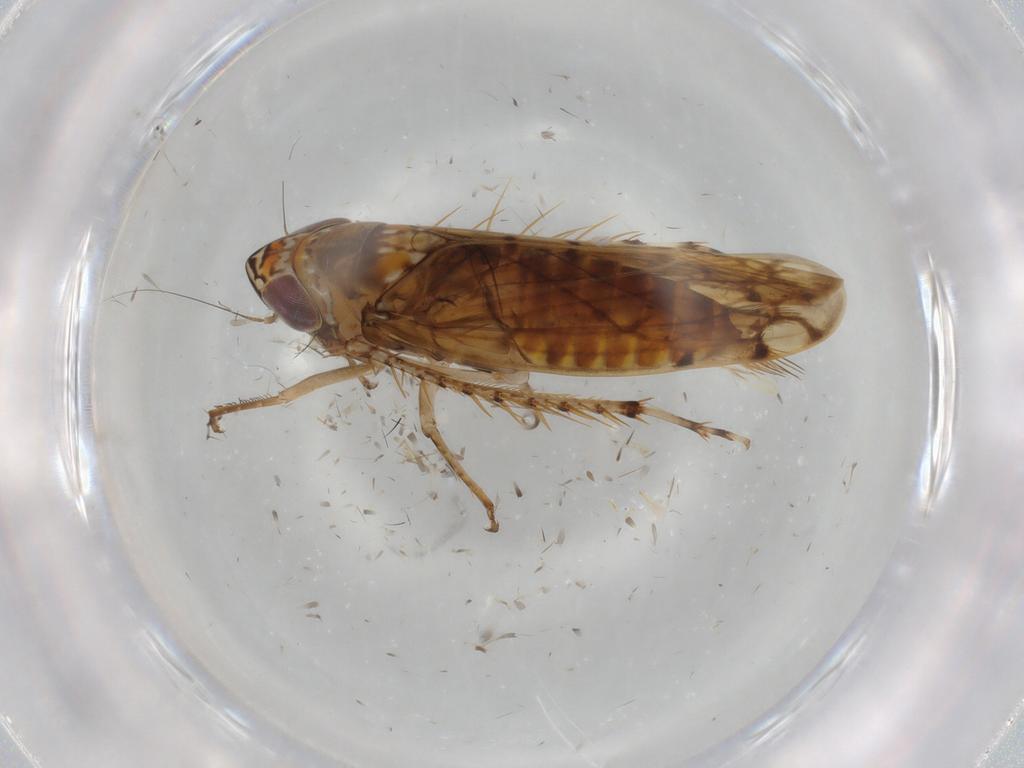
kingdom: Animalia
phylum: Arthropoda
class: Insecta
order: Hemiptera
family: Cicadellidae
